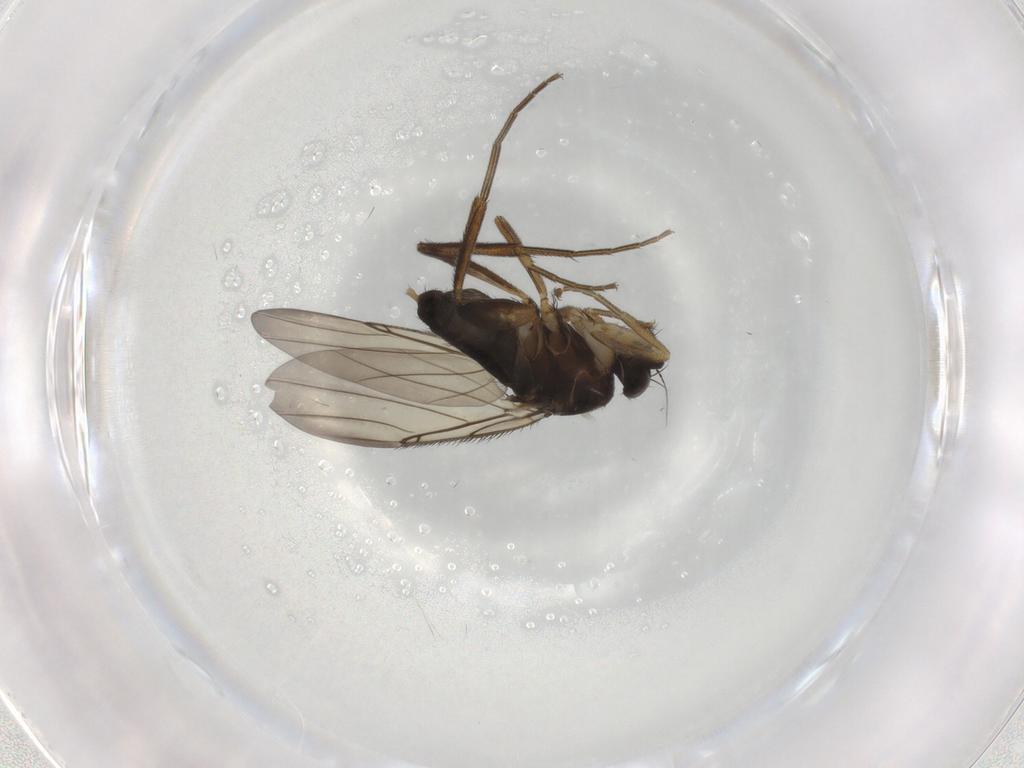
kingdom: Animalia
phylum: Arthropoda
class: Insecta
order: Diptera
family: Phoridae
